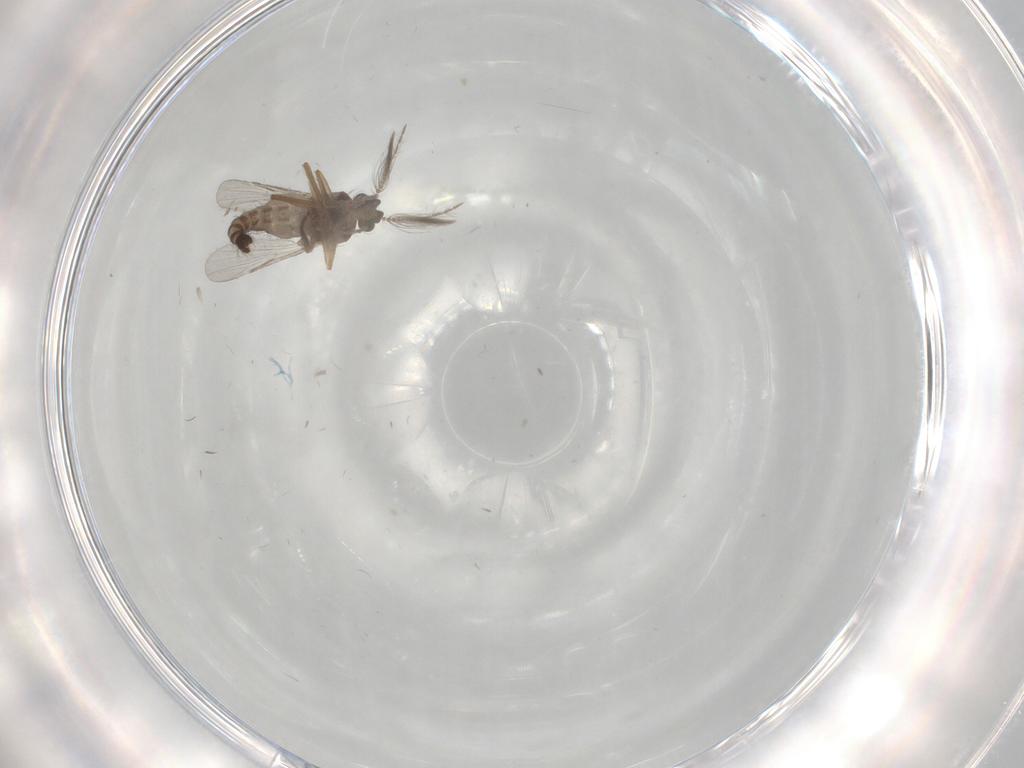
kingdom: Animalia
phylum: Arthropoda
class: Insecta
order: Diptera
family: Ceratopogonidae
